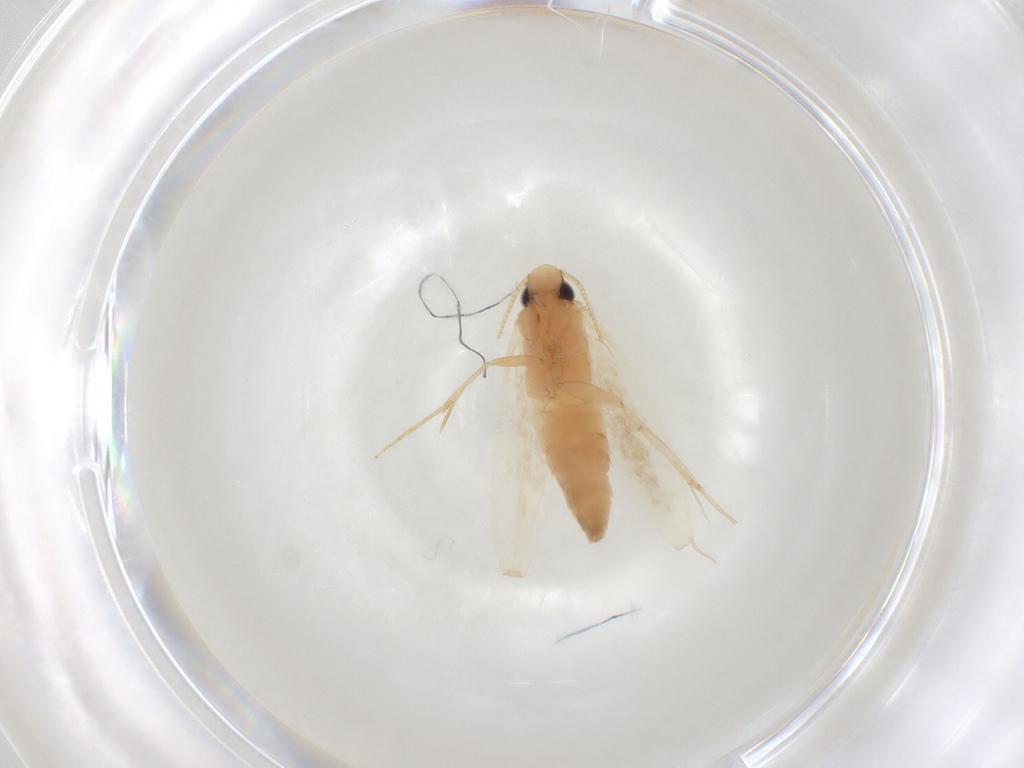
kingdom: Animalia
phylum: Arthropoda
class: Insecta
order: Lepidoptera
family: Tineidae
